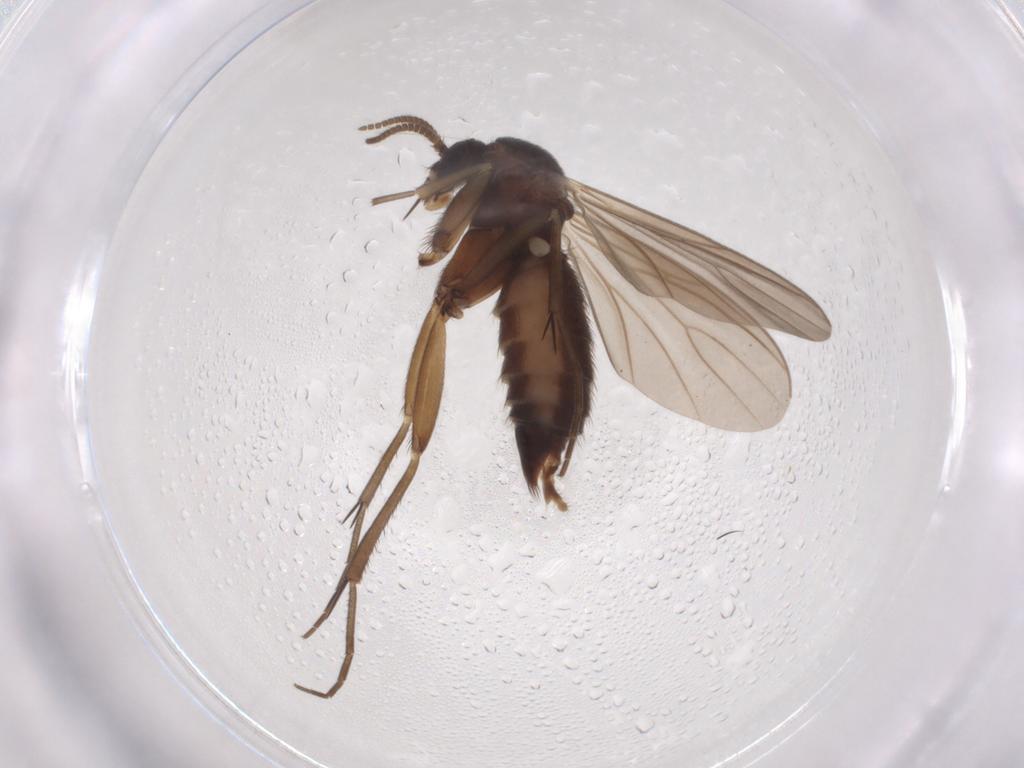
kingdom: Animalia
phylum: Arthropoda
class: Insecta
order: Diptera
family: Mycetophilidae
